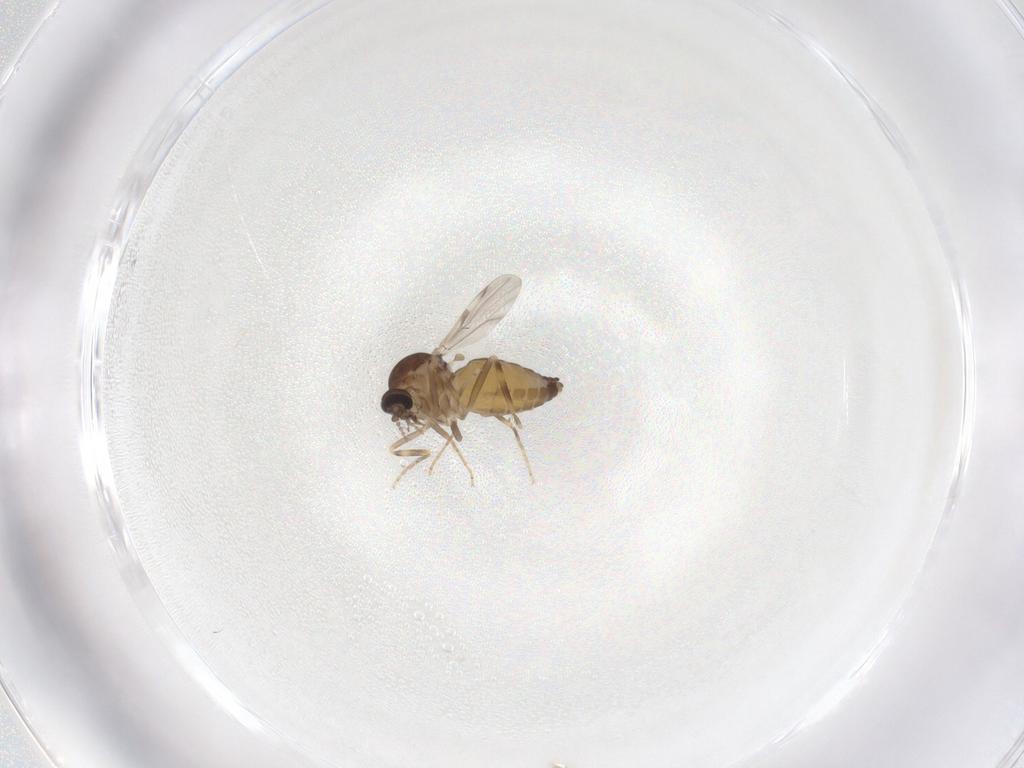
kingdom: Animalia
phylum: Arthropoda
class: Insecta
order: Diptera
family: Ceratopogonidae
